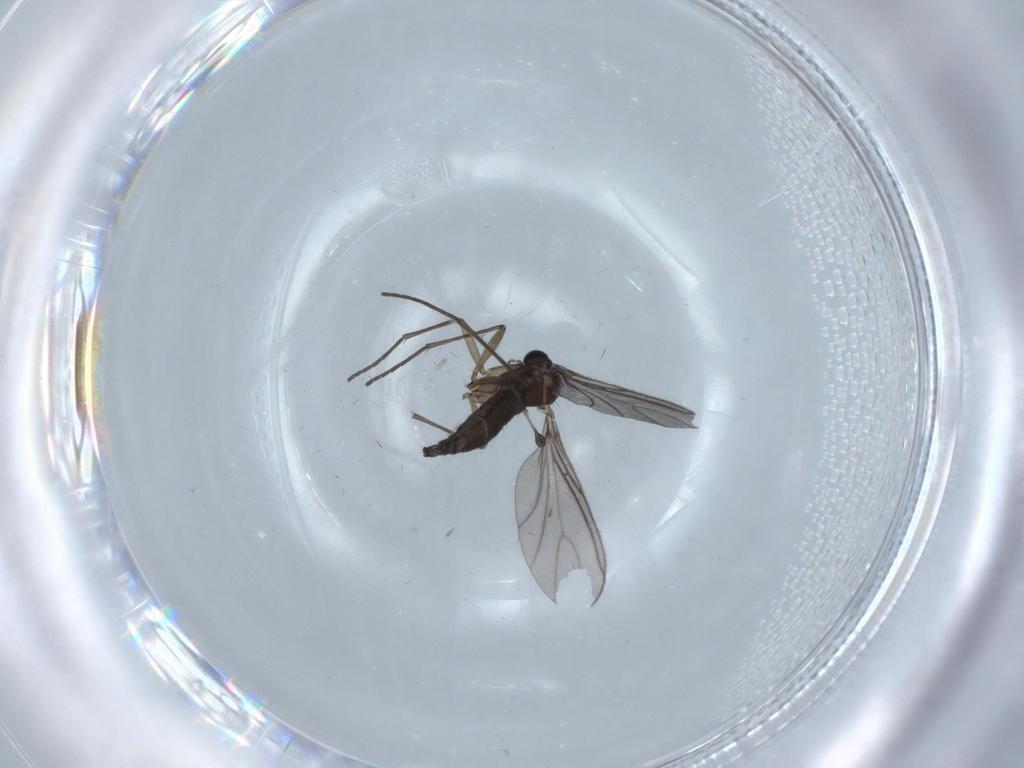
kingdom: Animalia
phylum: Arthropoda
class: Insecta
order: Diptera
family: Sciaridae
